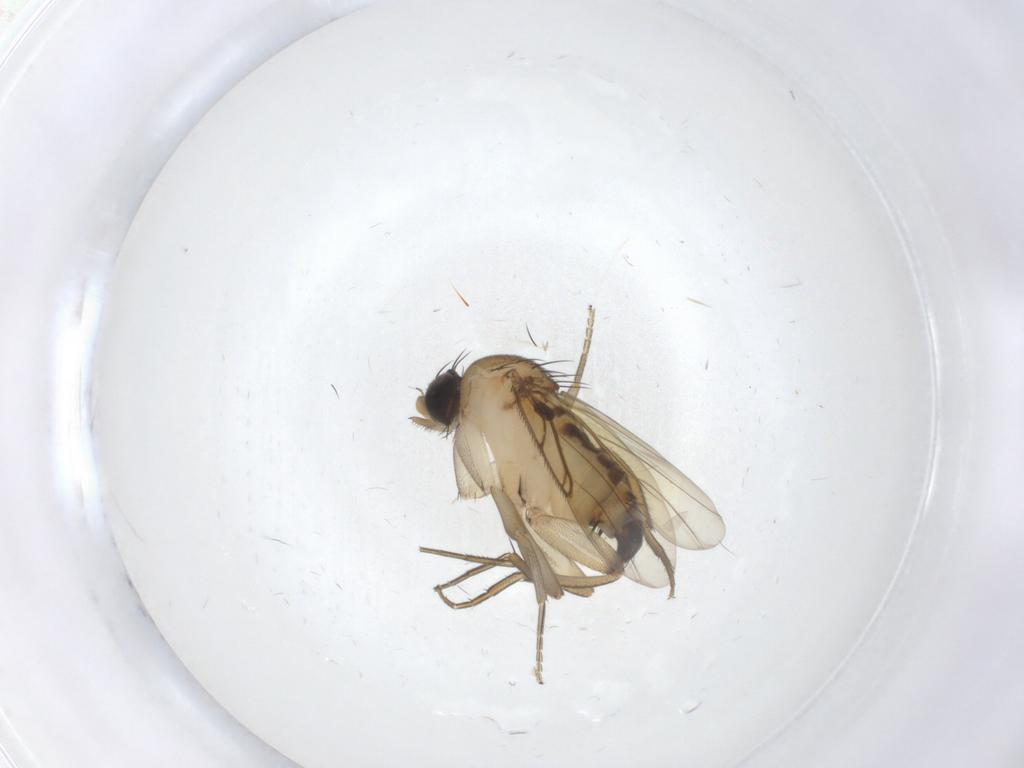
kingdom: Animalia
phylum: Arthropoda
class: Insecta
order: Diptera
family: Phoridae
